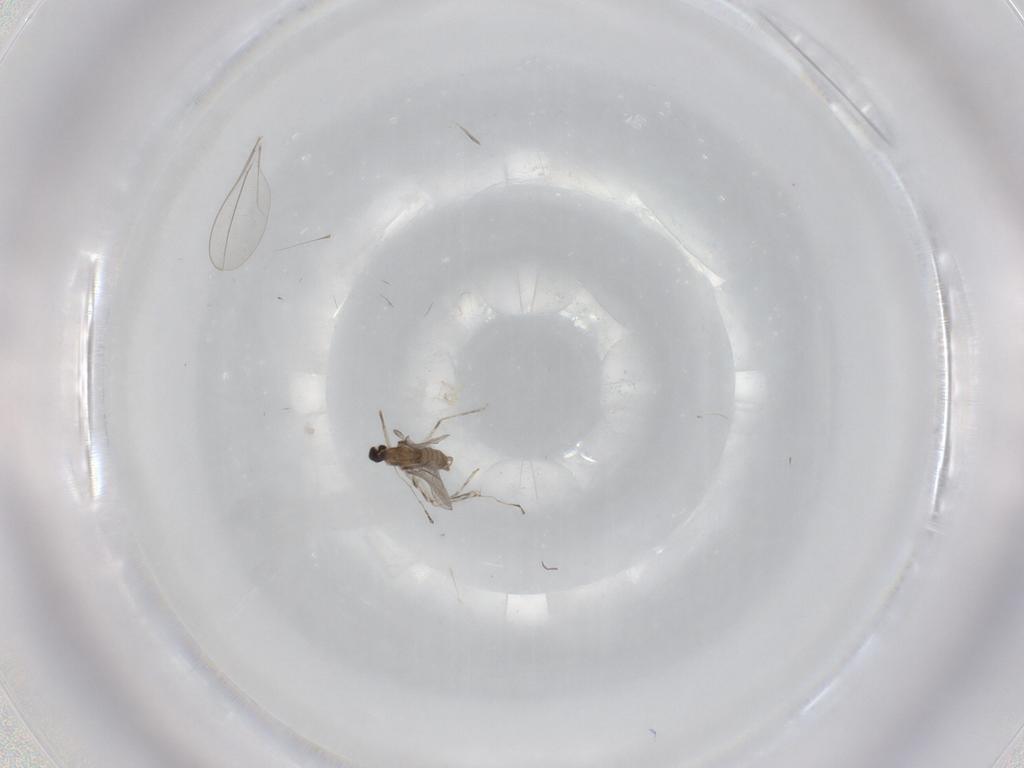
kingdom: Animalia
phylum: Arthropoda
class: Insecta
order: Diptera
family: Cecidomyiidae
